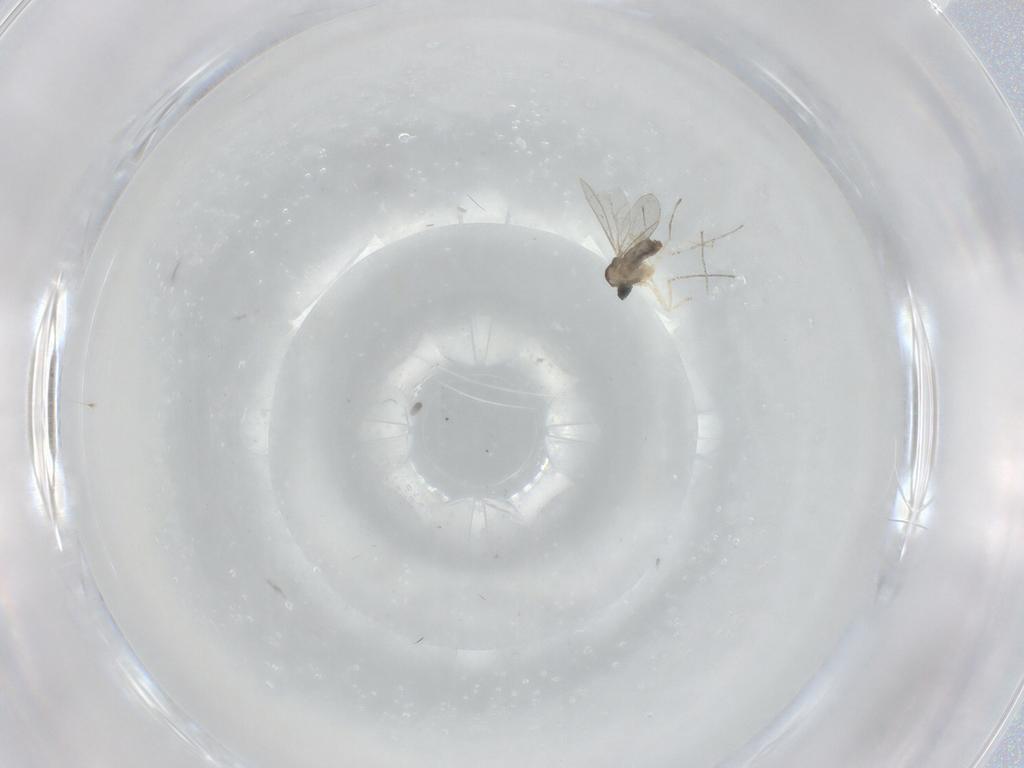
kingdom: Animalia
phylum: Arthropoda
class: Insecta
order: Diptera
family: Cecidomyiidae
